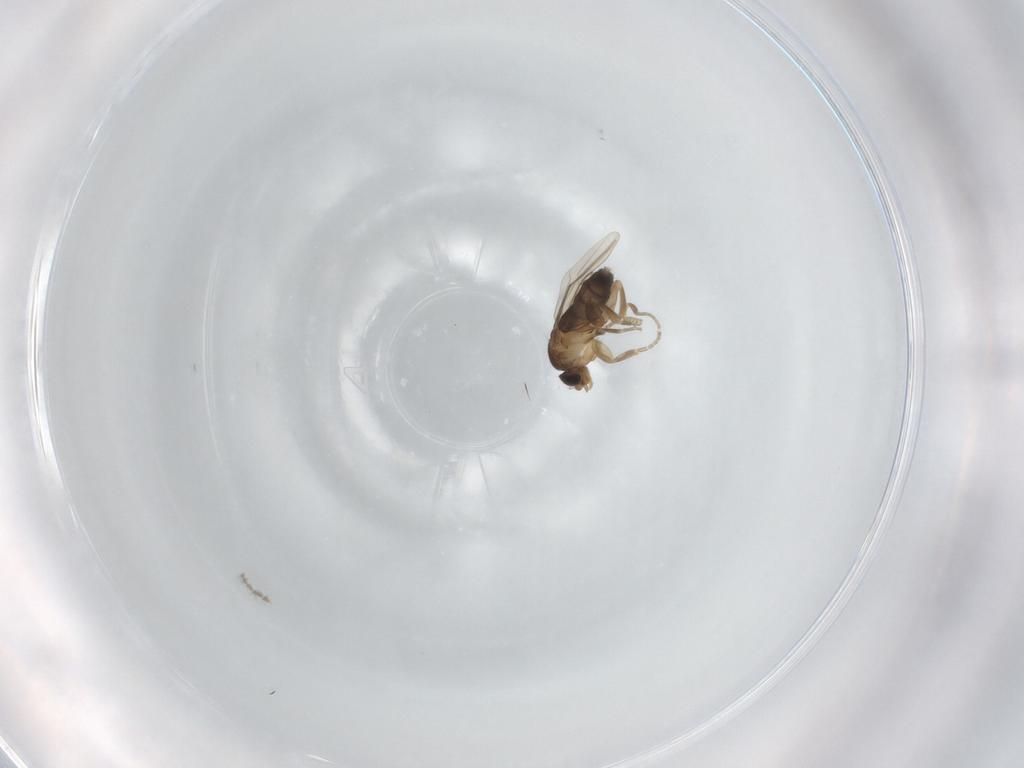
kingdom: Animalia
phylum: Arthropoda
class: Insecta
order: Diptera
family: Phoridae
